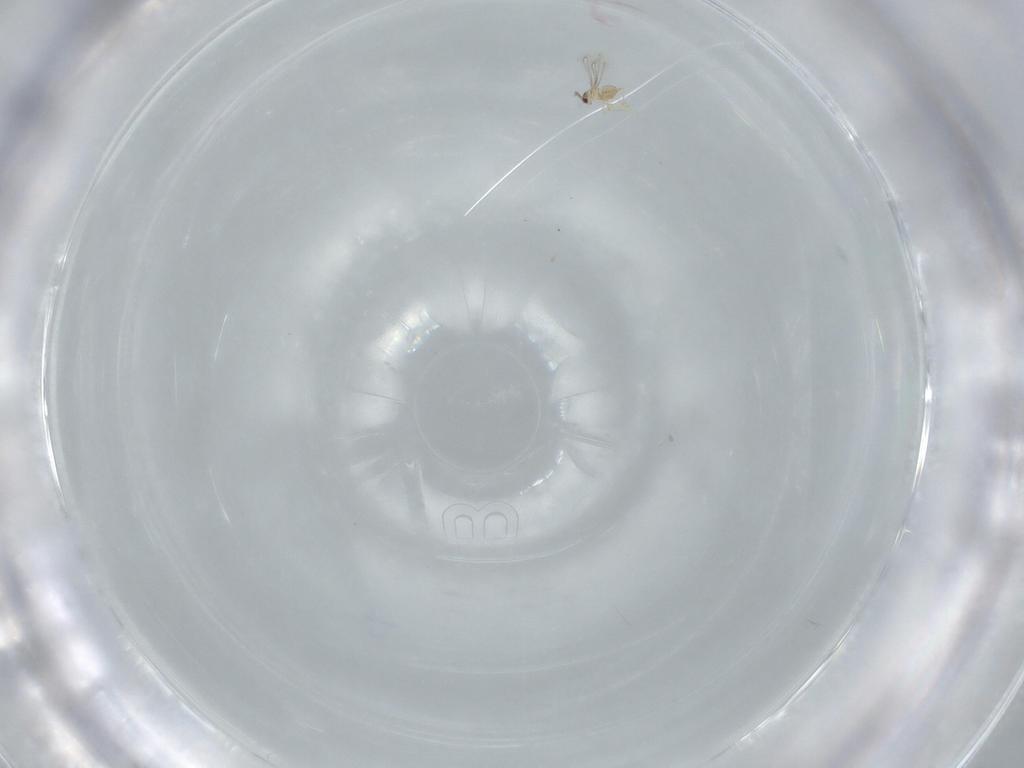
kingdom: Animalia
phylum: Arthropoda
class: Insecta
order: Hymenoptera
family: Mymaridae
